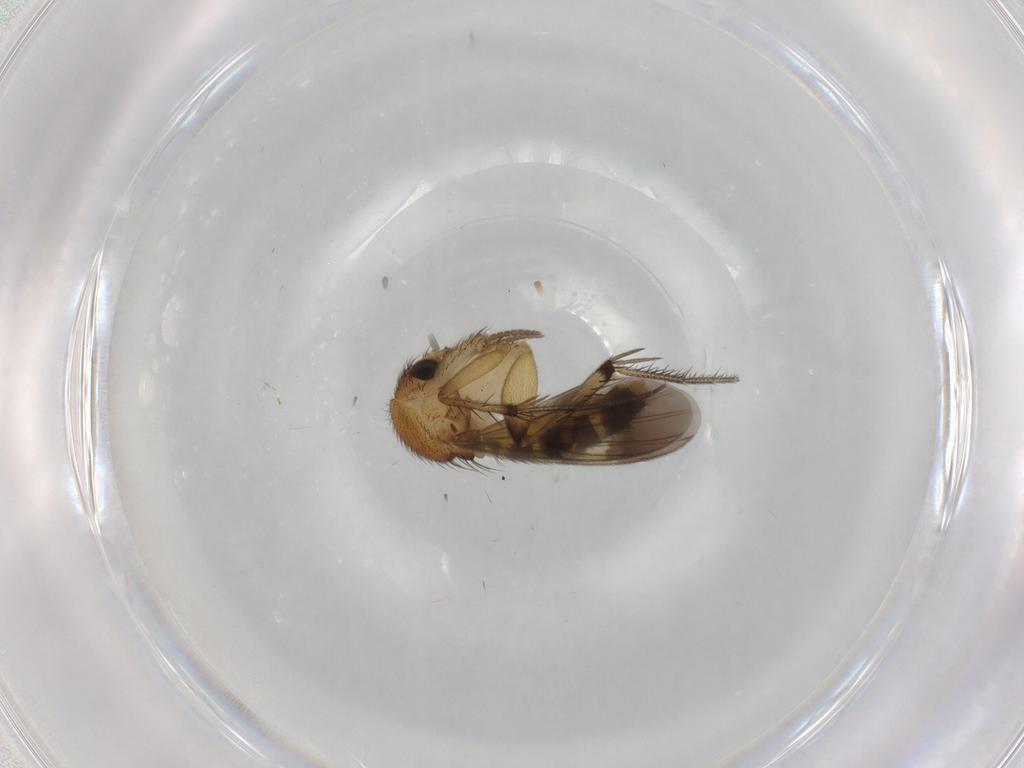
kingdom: Animalia
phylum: Arthropoda
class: Insecta
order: Diptera
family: Mycetophilidae
